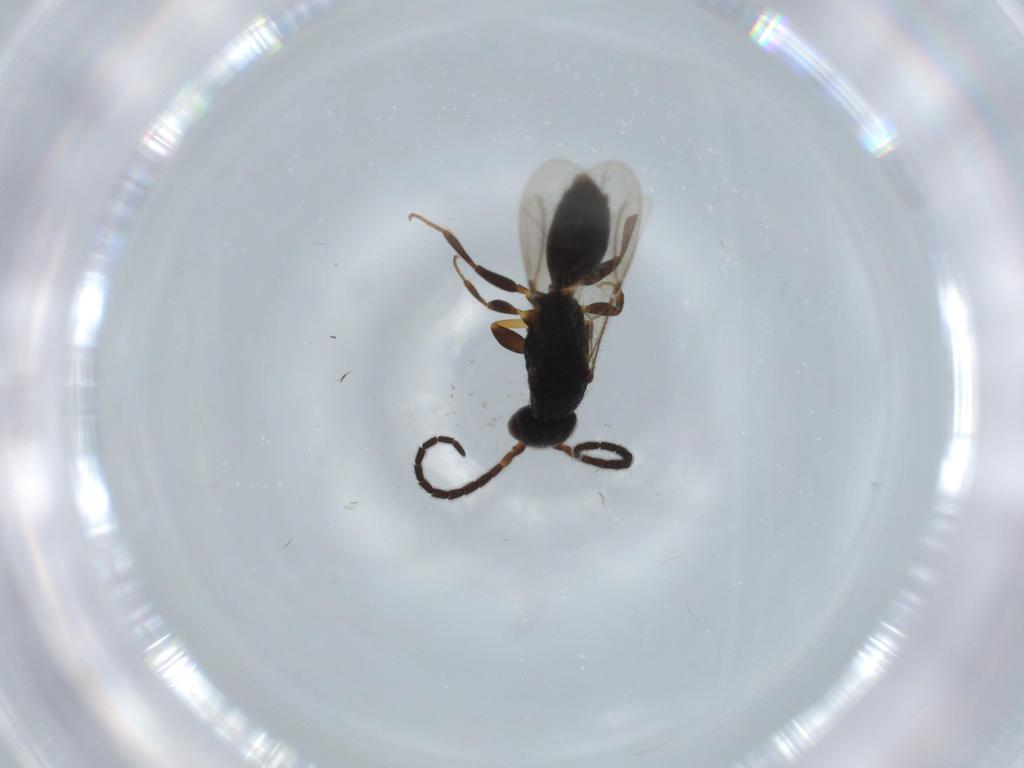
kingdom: Animalia
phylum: Arthropoda
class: Insecta
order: Hymenoptera
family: Bethylidae
